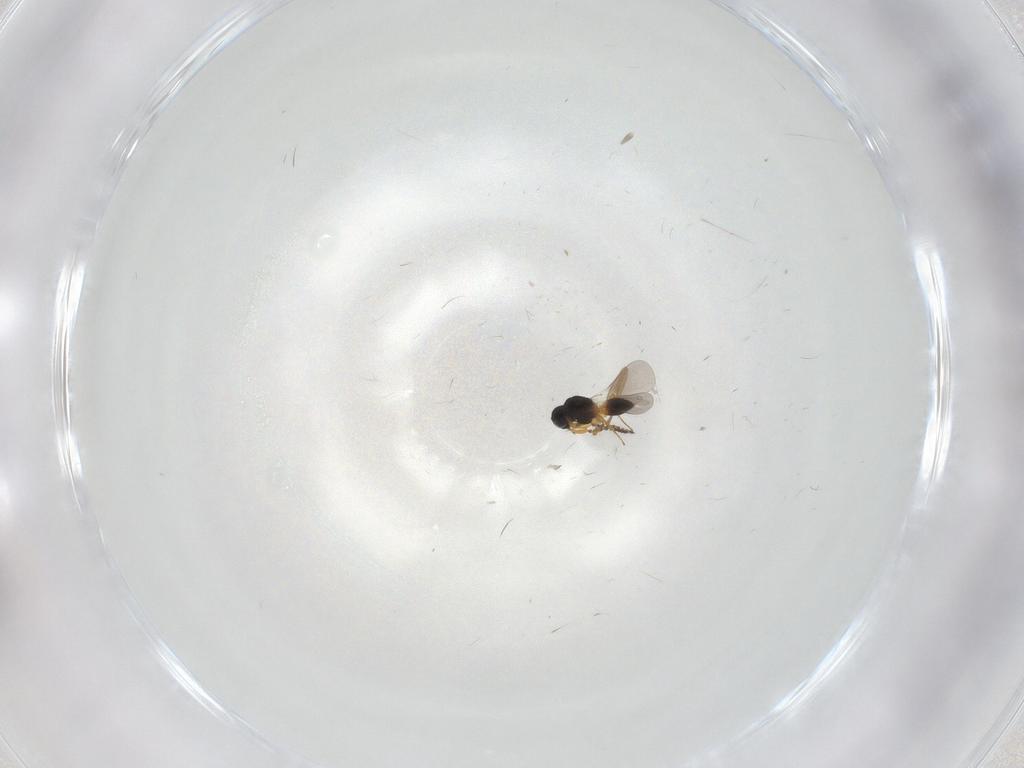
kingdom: Animalia
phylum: Arthropoda
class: Insecta
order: Hymenoptera
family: Platygastridae
